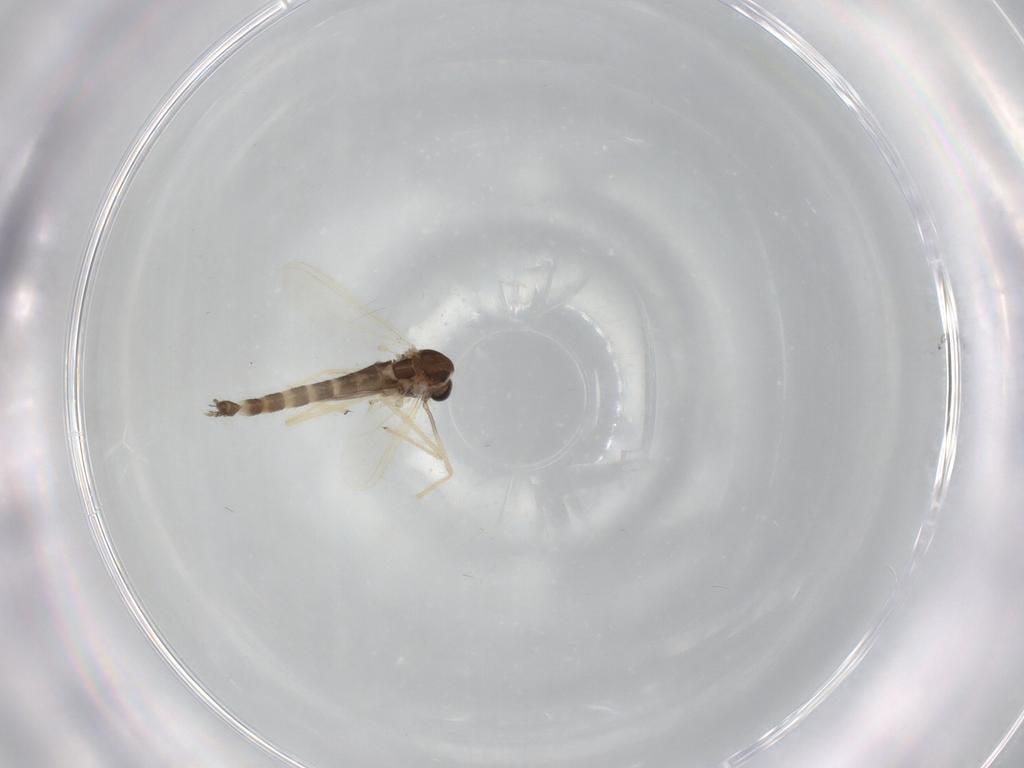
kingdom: Animalia
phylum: Arthropoda
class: Insecta
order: Diptera
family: Chironomidae
